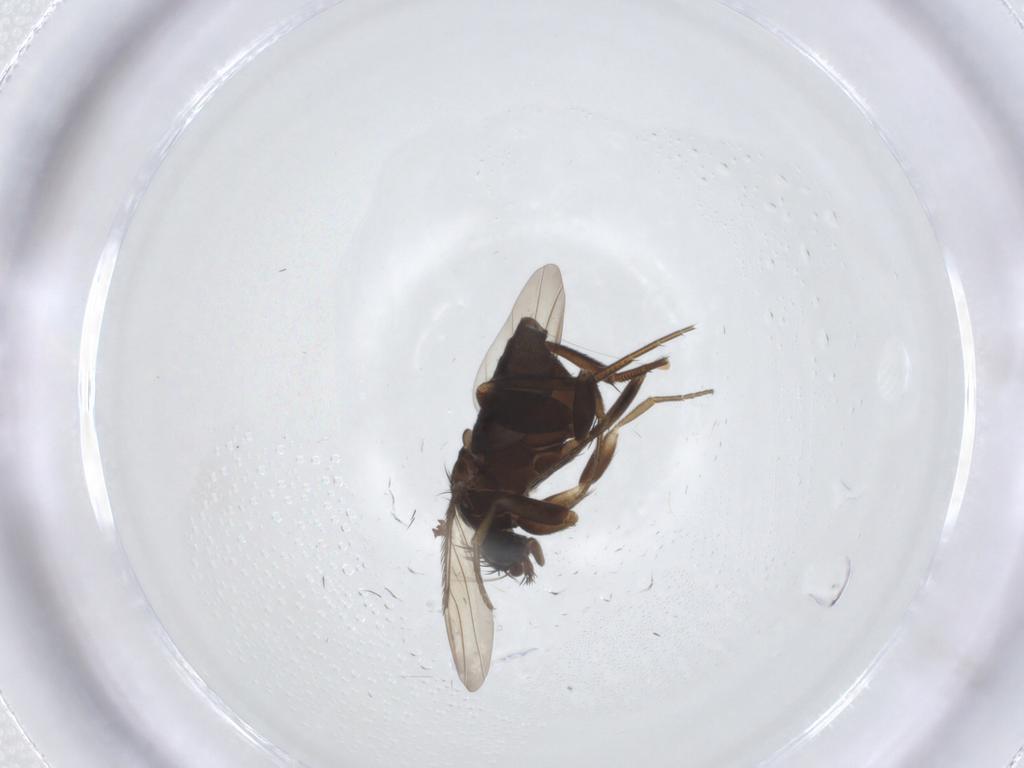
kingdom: Animalia
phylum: Arthropoda
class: Insecta
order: Diptera
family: Phoridae
